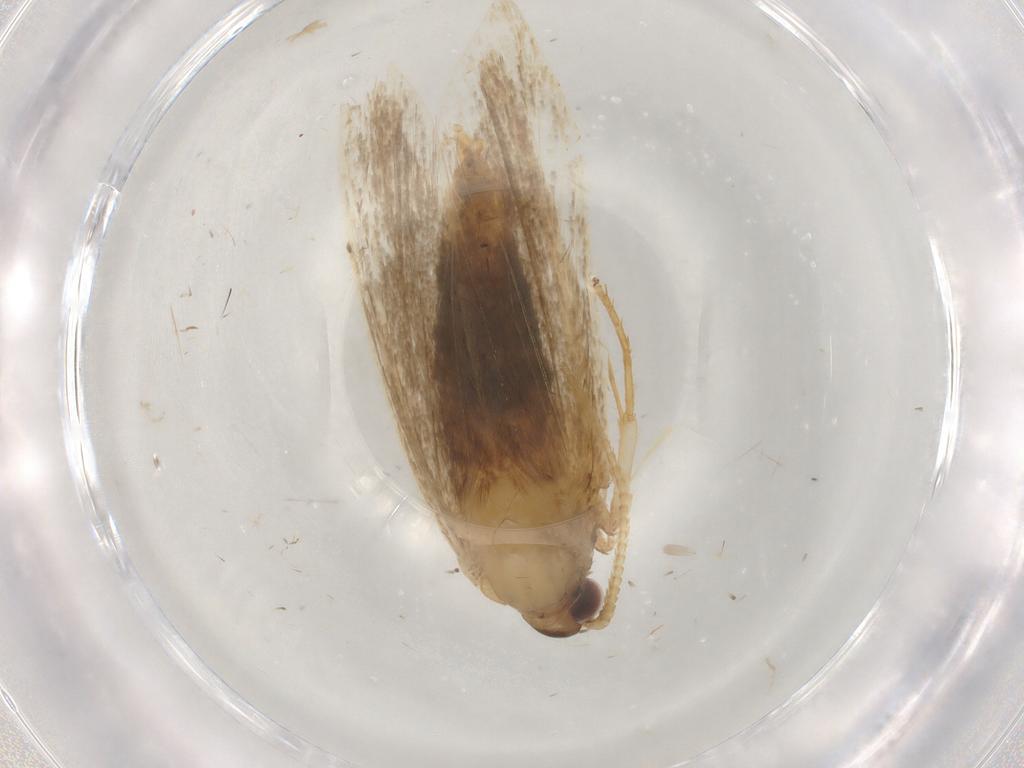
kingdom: Animalia
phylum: Arthropoda
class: Insecta
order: Lepidoptera
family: Lecithoceridae
